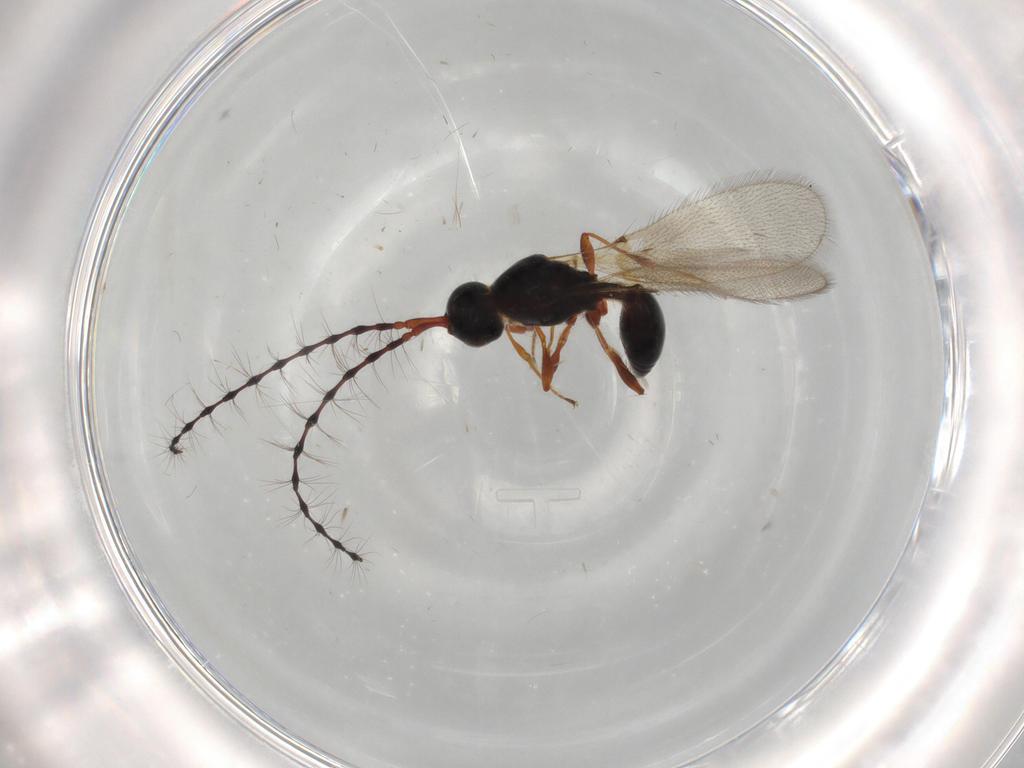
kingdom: Animalia
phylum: Arthropoda
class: Insecta
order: Hymenoptera
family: Diapriidae
